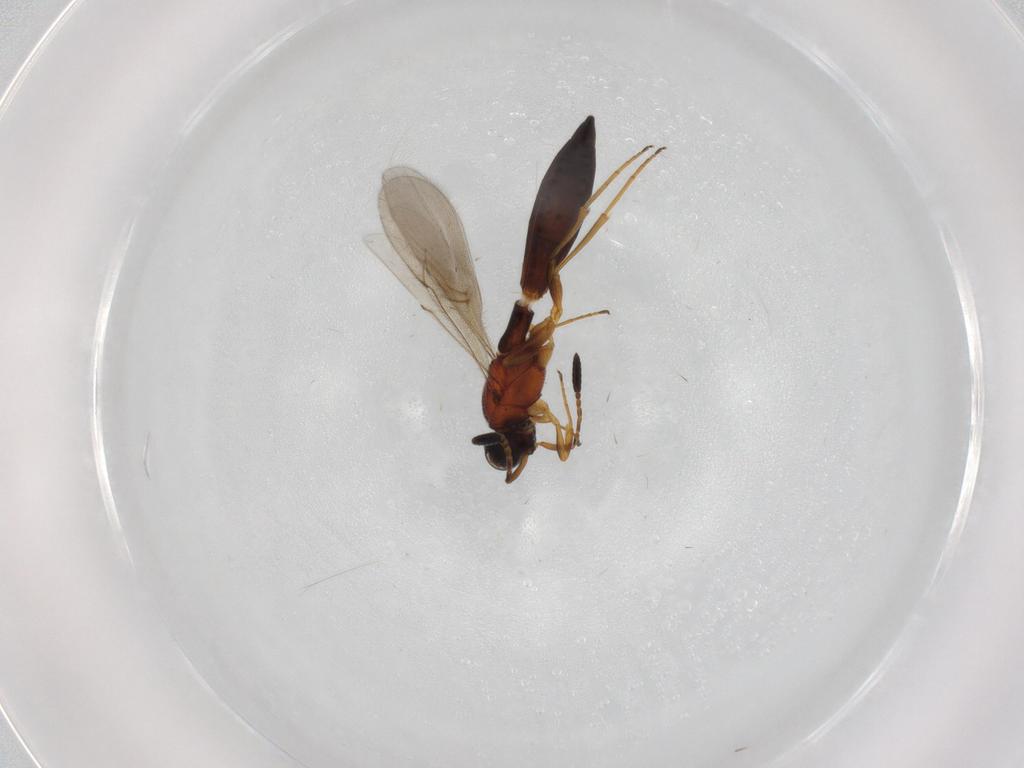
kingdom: Animalia
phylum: Arthropoda
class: Insecta
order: Hymenoptera
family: Scelionidae
